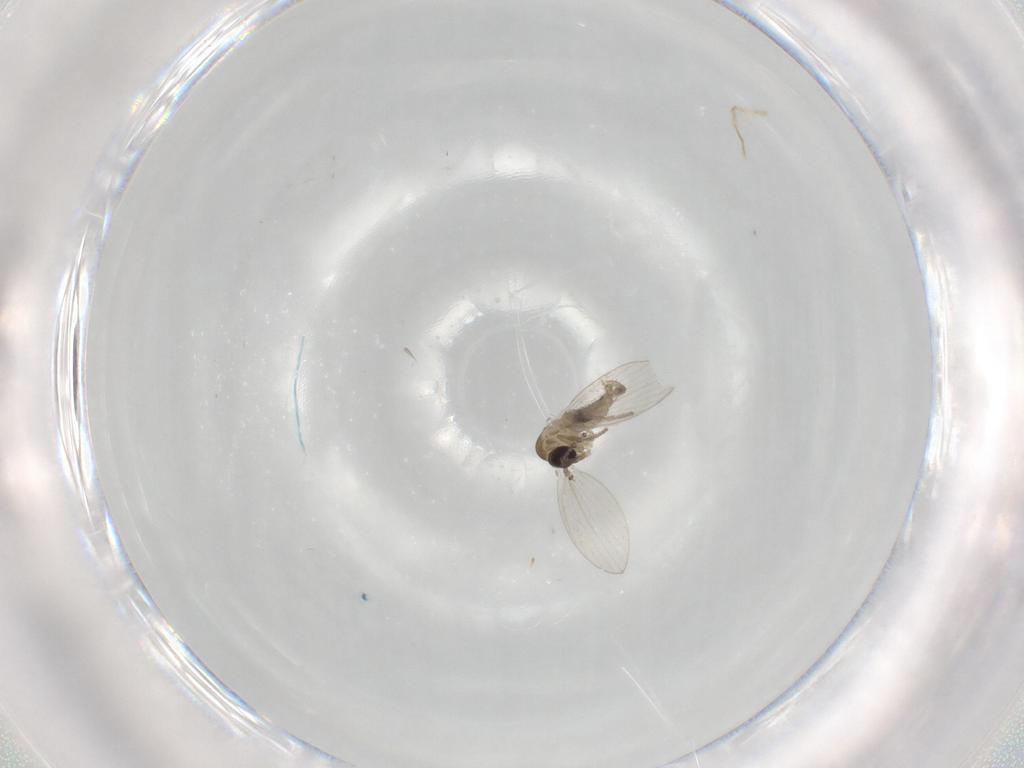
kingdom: Animalia
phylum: Arthropoda
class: Insecta
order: Diptera
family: Psychodidae
